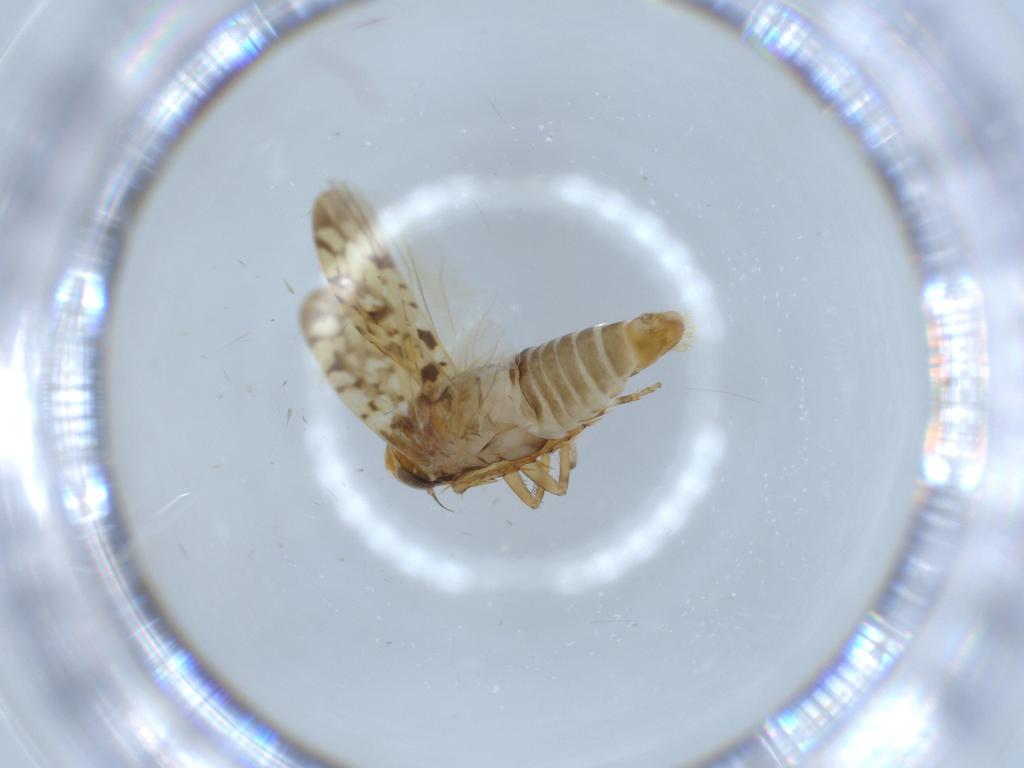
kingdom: Animalia
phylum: Arthropoda
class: Insecta
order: Hemiptera
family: Cicadellidae
